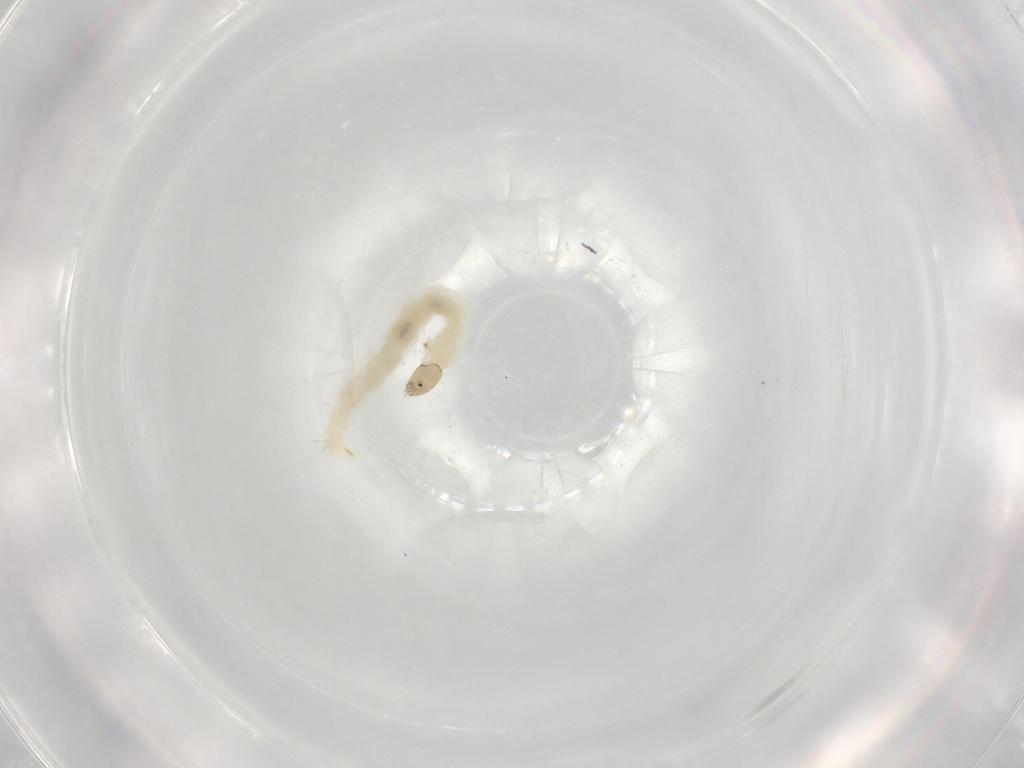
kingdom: Animalia
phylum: Arthropoda
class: Insecta
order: Diptera
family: Chironomidae
